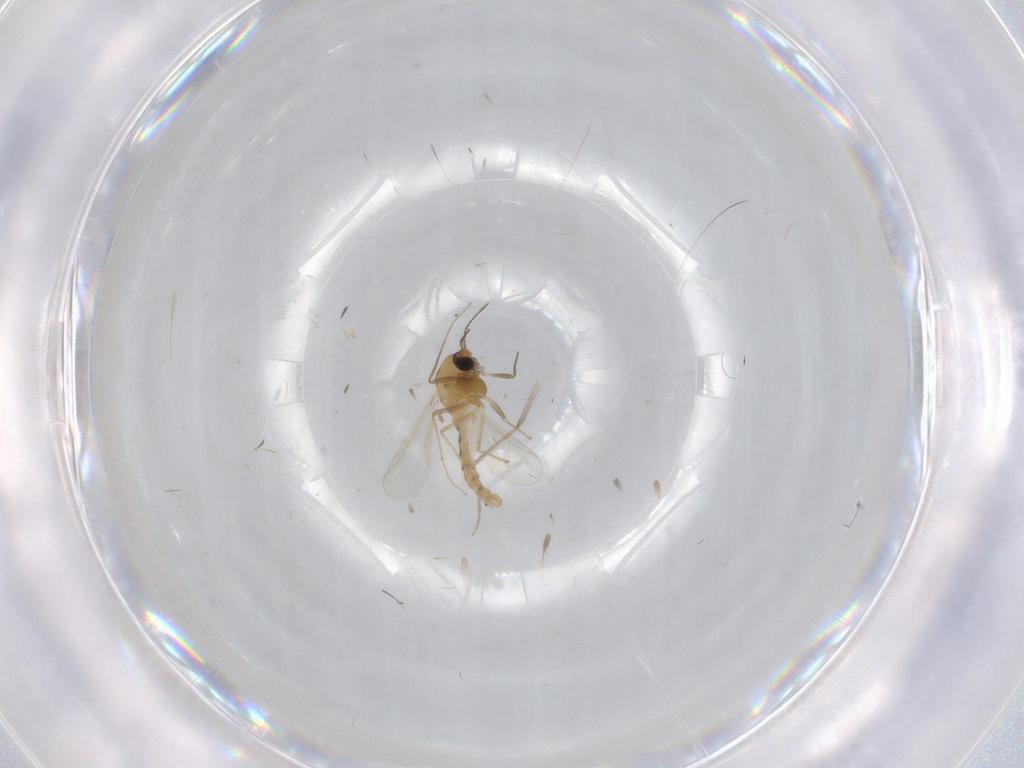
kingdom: Animalia
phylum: Arthropoda
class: Insecta
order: Diptera
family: Chironomidae
